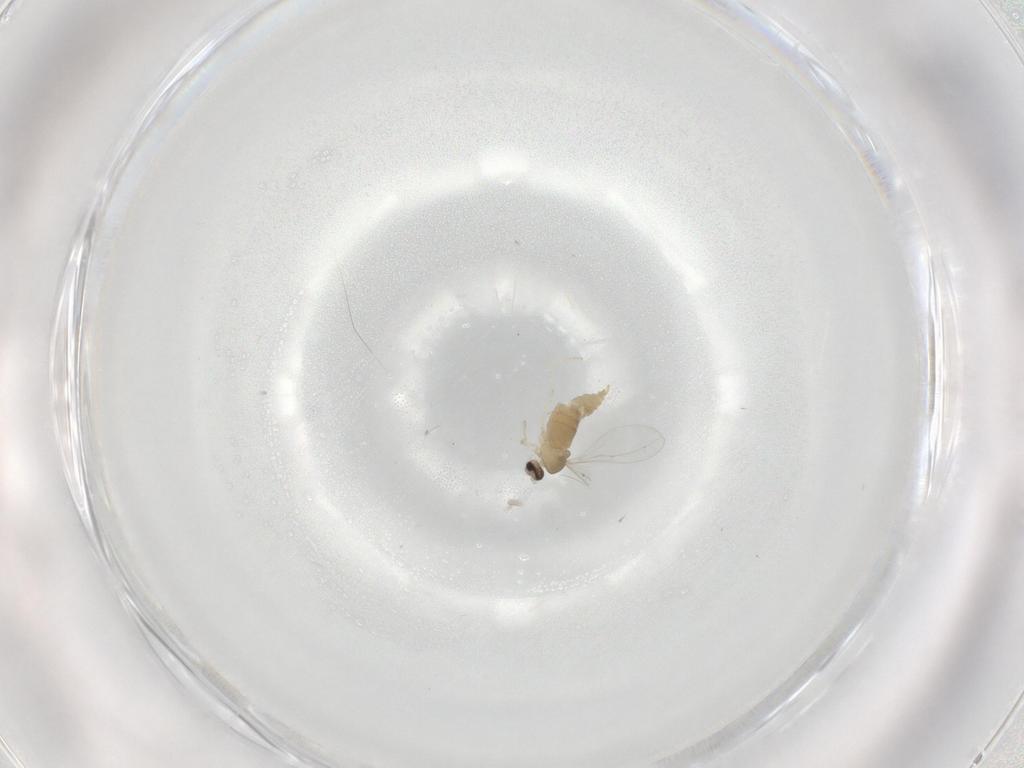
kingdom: Animalia
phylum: Arthropoda
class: Insecta
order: Diptera
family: Cecidomyiidae
